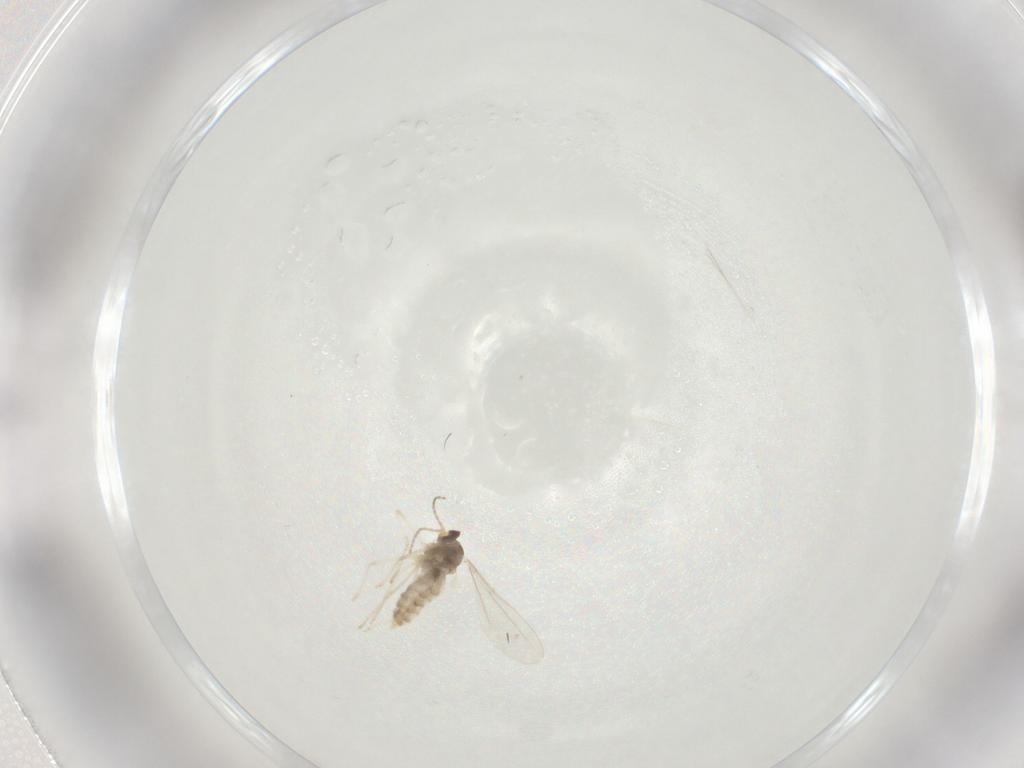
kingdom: Animalia
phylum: Arthropoda
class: Insecta
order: Diptera
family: Cecidomyiidae
